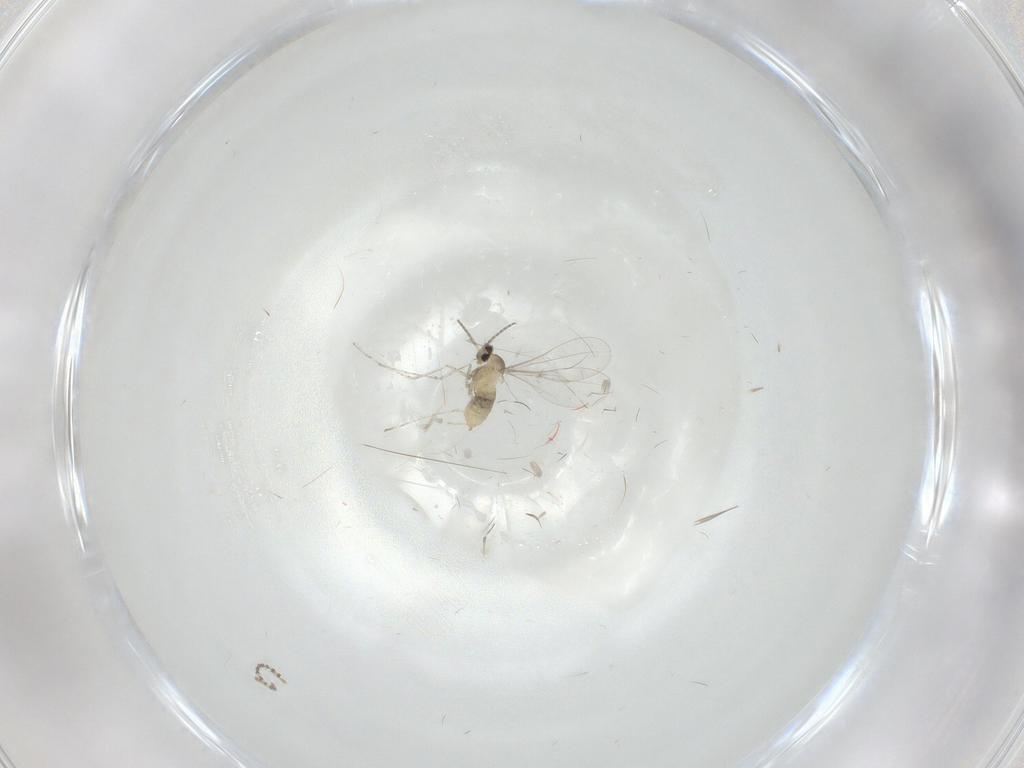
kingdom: Animalia
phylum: Arthropoda
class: Insecta
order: Diptera
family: Cecidomyiidae
